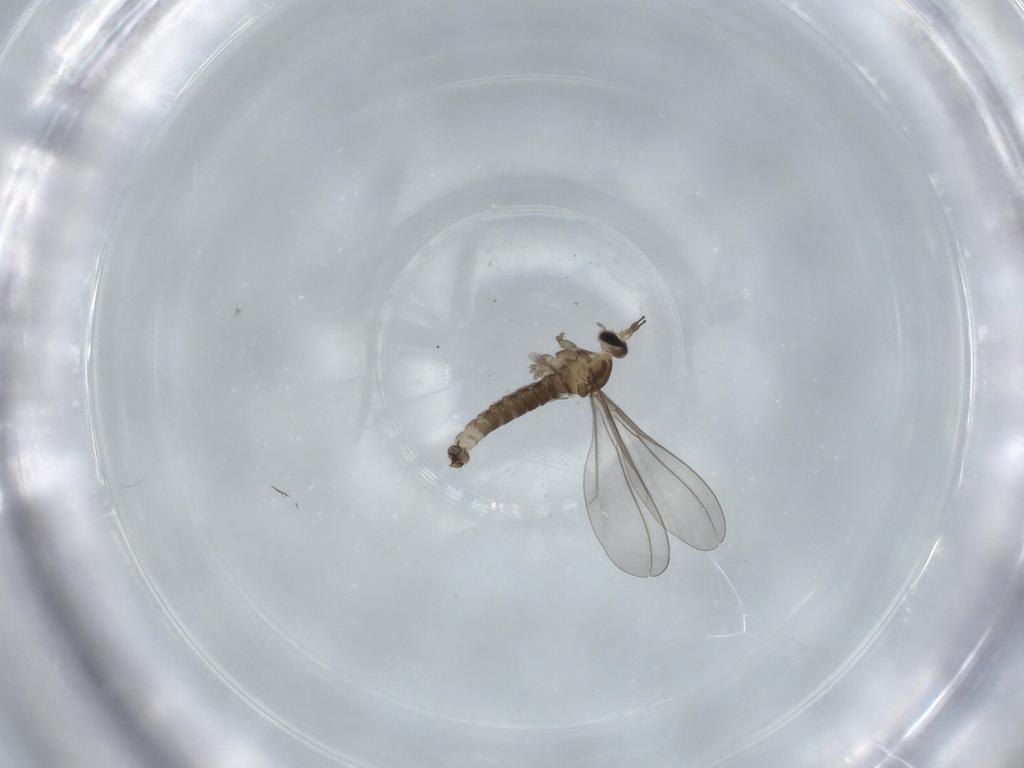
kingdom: Animalia
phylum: Arthropoda
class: Insecta
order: Diptera
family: Cecidomyiidae
